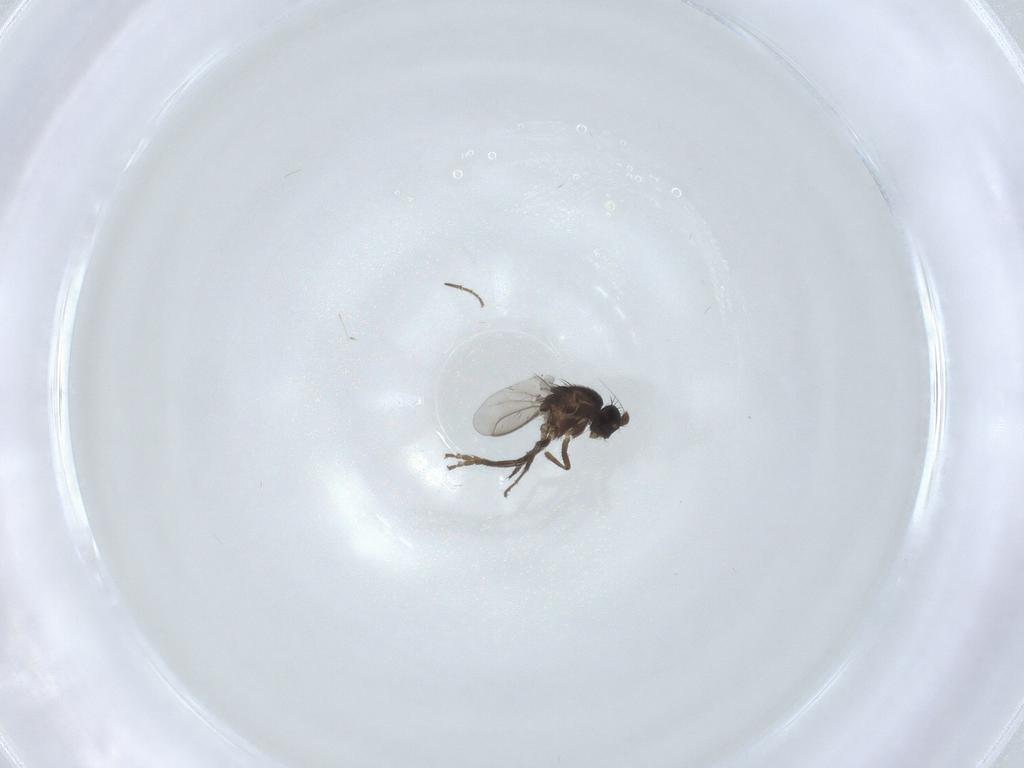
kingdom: Animalia
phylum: Arthropoda
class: Insecta
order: Diptera
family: Sphaeroceridae
